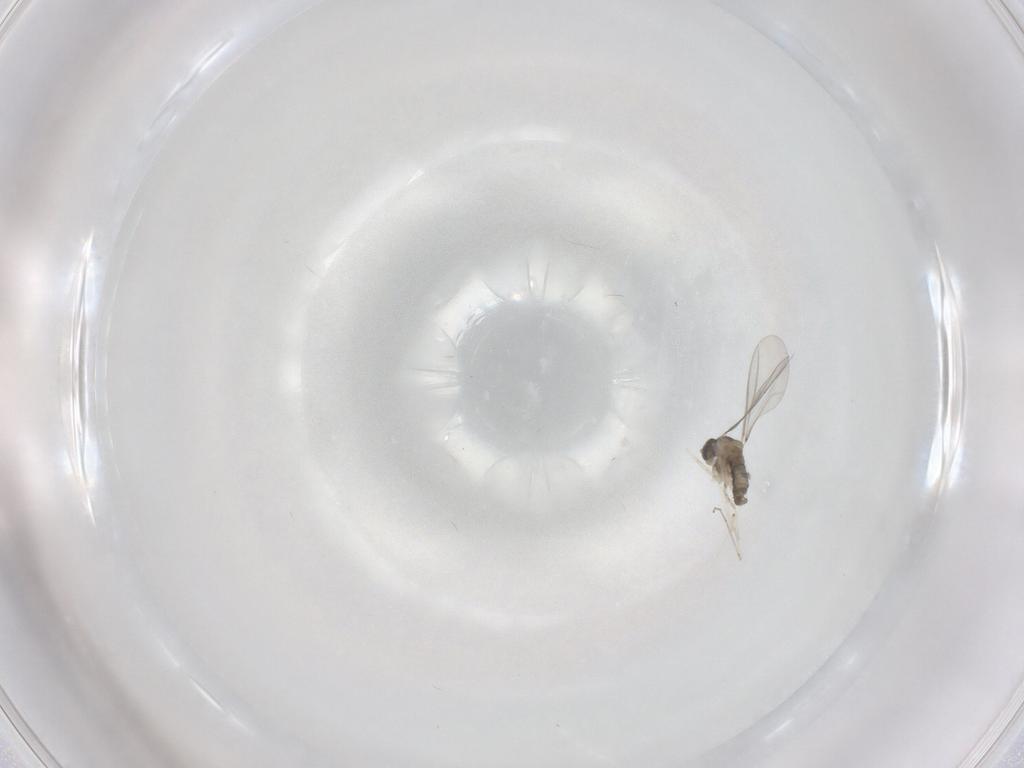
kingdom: Animalia
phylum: Arthropoda
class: Insecta
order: Diptera
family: Cecidomyiidae
